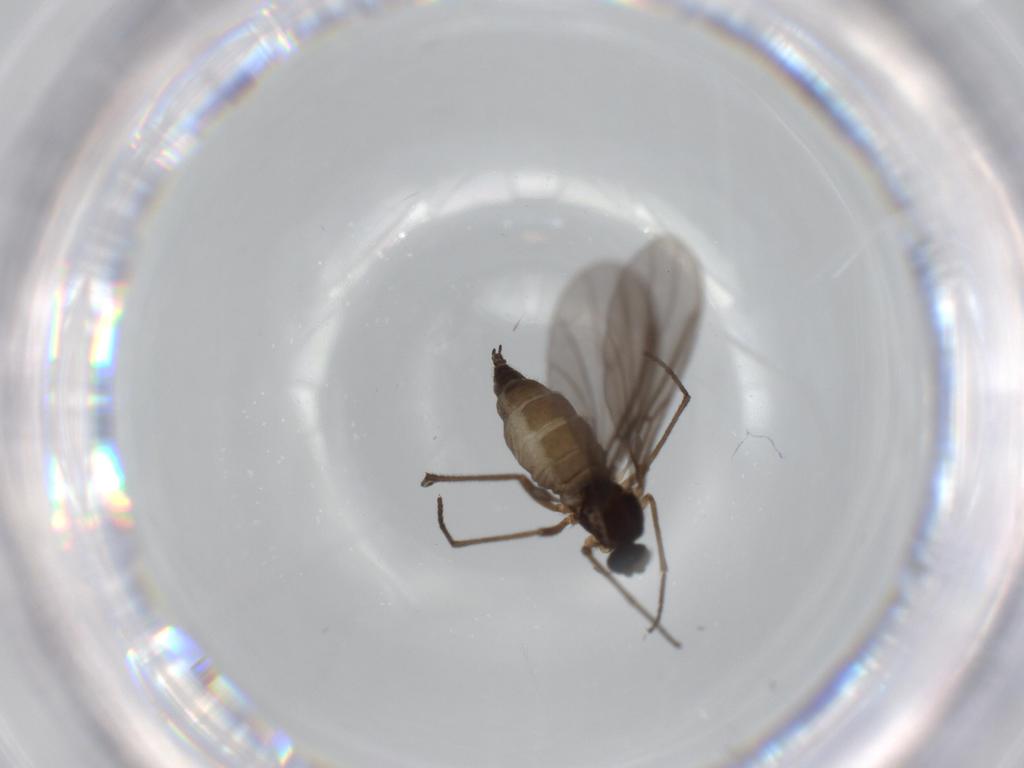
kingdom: Animalia
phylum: Arthropoda
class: Insecta
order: Diptera
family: Sciaridae
